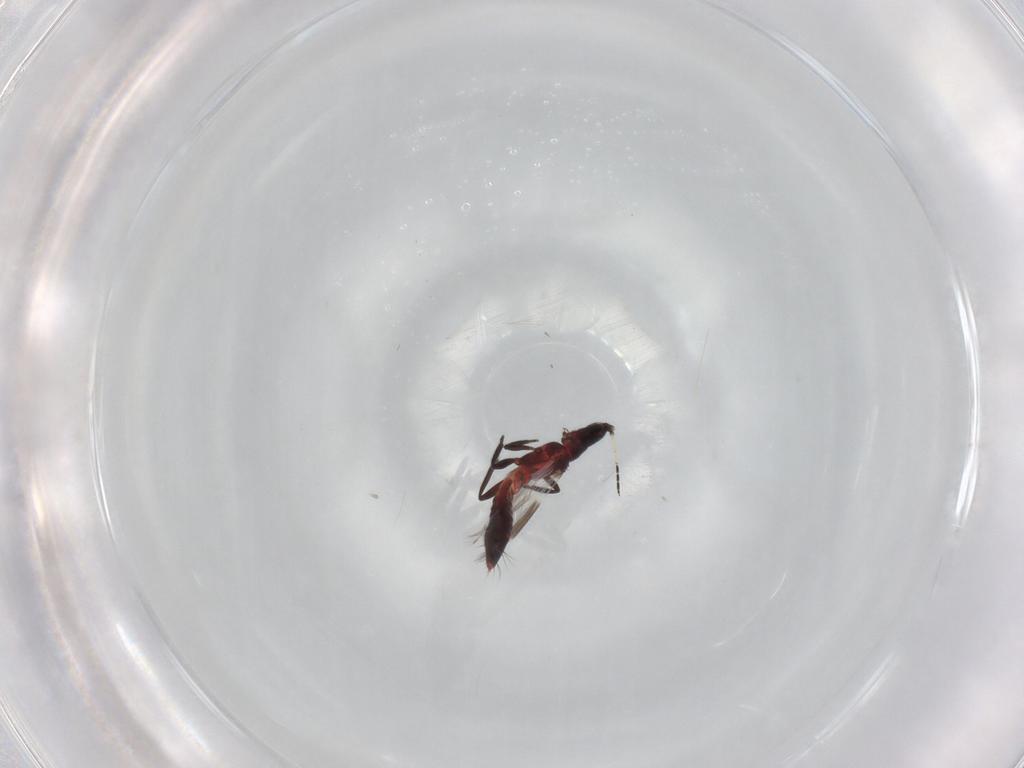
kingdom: Animalia
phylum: Arthropoda
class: Insecta
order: Thysanoptera
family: Aeolothripidae
